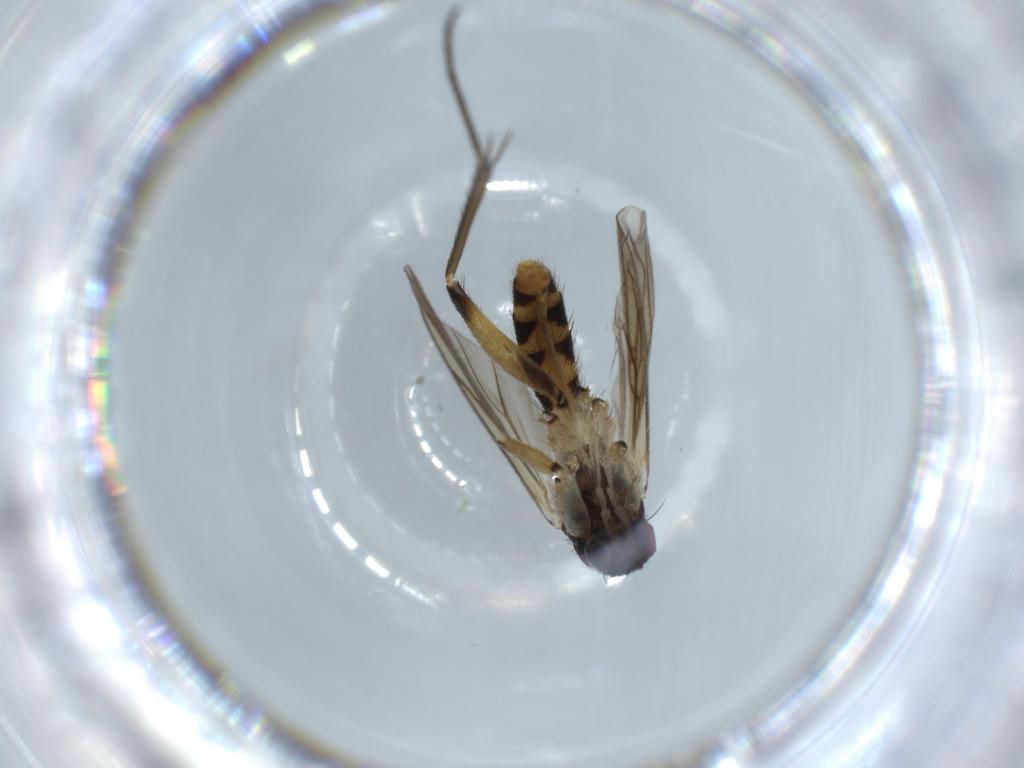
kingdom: Animalia
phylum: Arthropoda
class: Insecta
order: Diptera
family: Mycetophilidae
